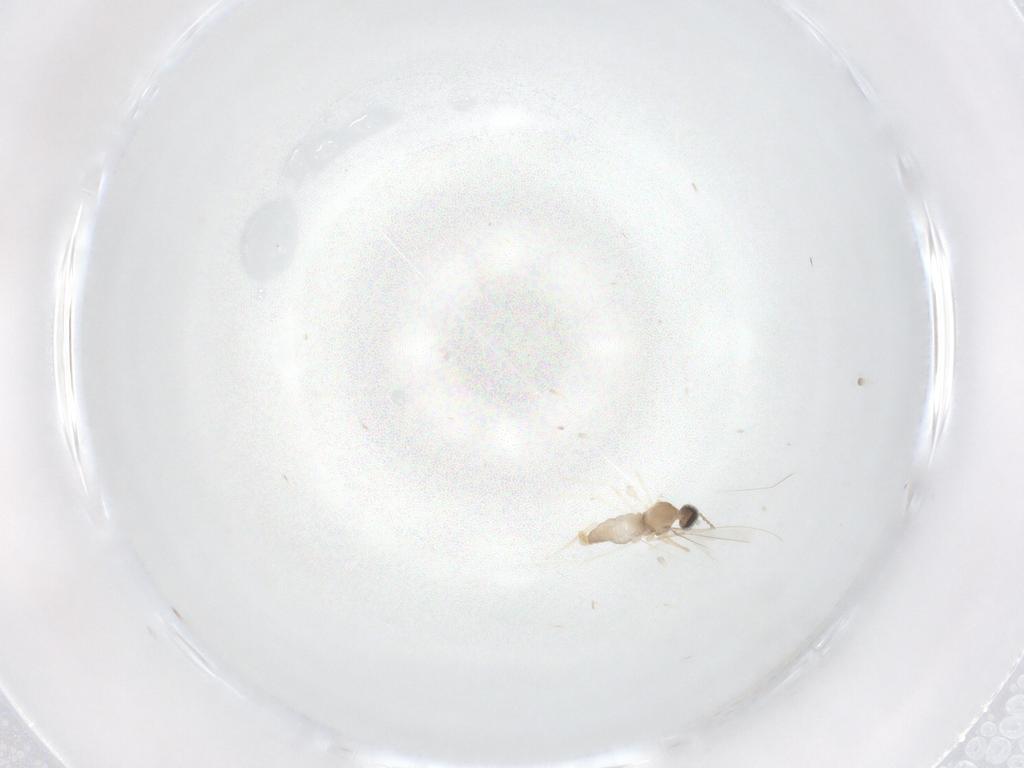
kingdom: Animalia
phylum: Arthropoda
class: Insecta
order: Diptera
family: Cecidomyiidae
